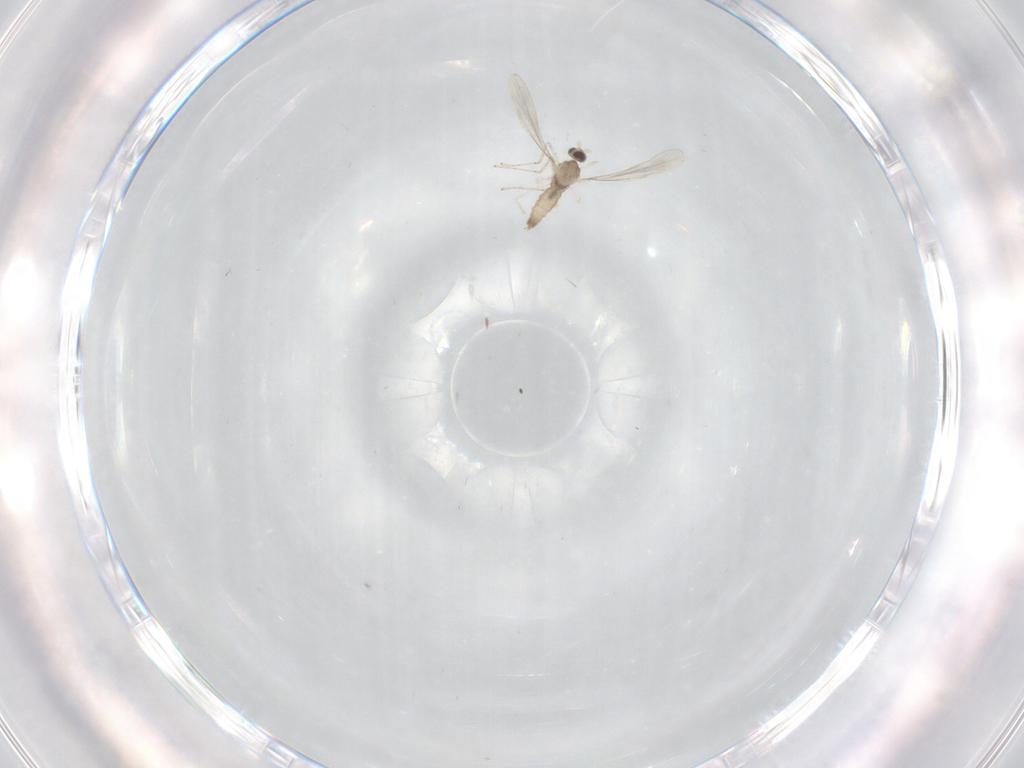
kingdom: Animalia
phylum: Arthropoda
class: Insecta
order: Diptera
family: Cecidomyiidae
